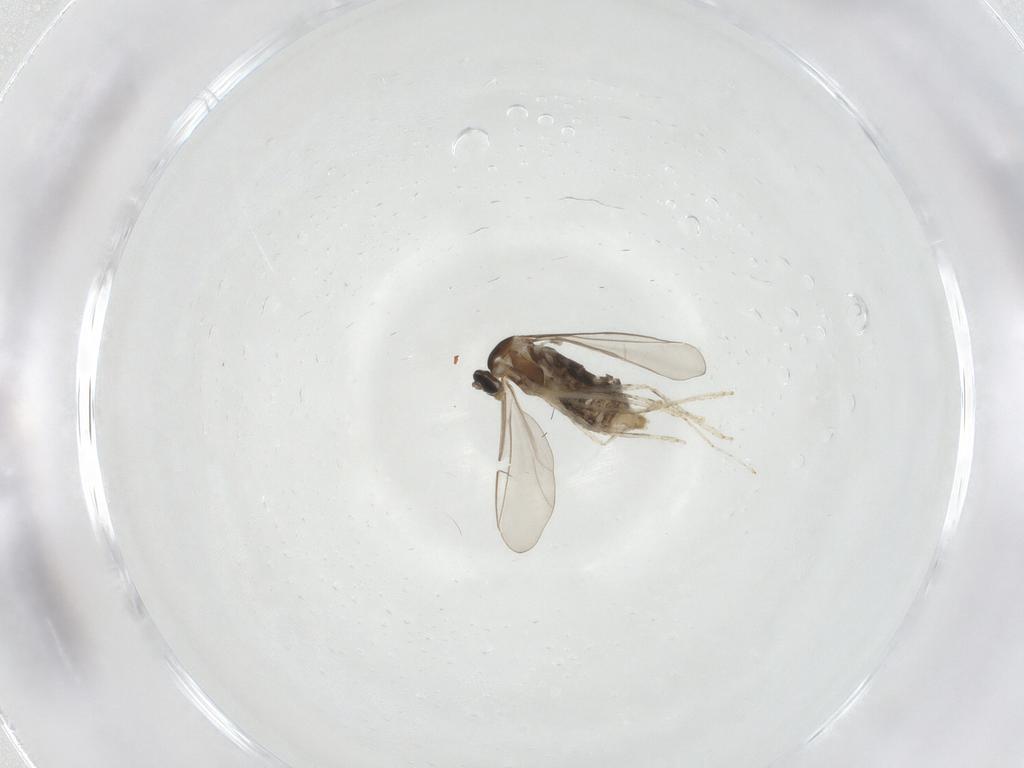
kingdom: Animalia
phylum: Arthropoda
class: Insecta
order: Diptera
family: Cecidomyiidae
